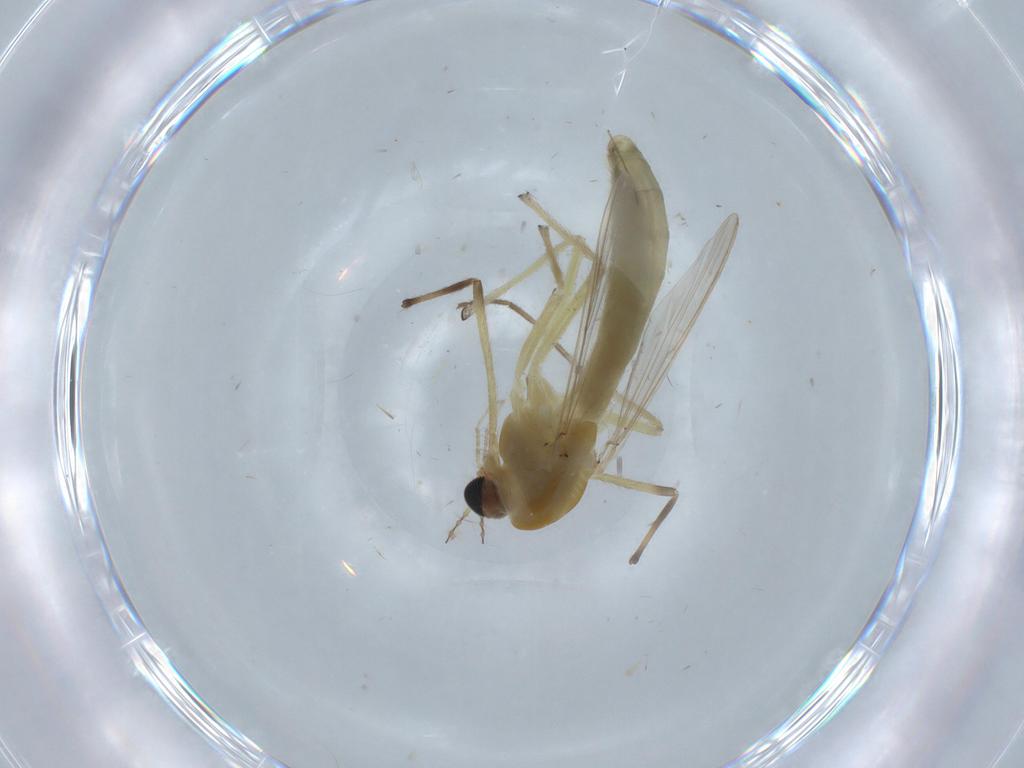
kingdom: Animalia
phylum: Arthropoda
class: Insecta
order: Diptera
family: Chironomidae
